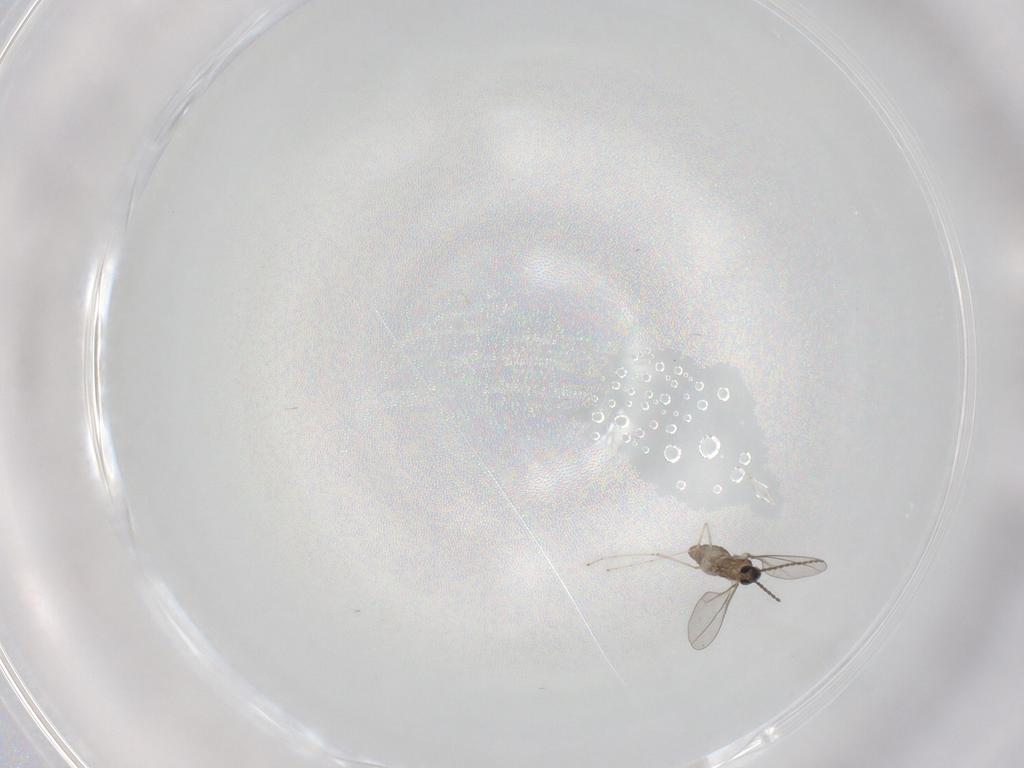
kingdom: Animalia
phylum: Arthropoda
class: Insecta
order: Diptera
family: Cecidomyiidae
